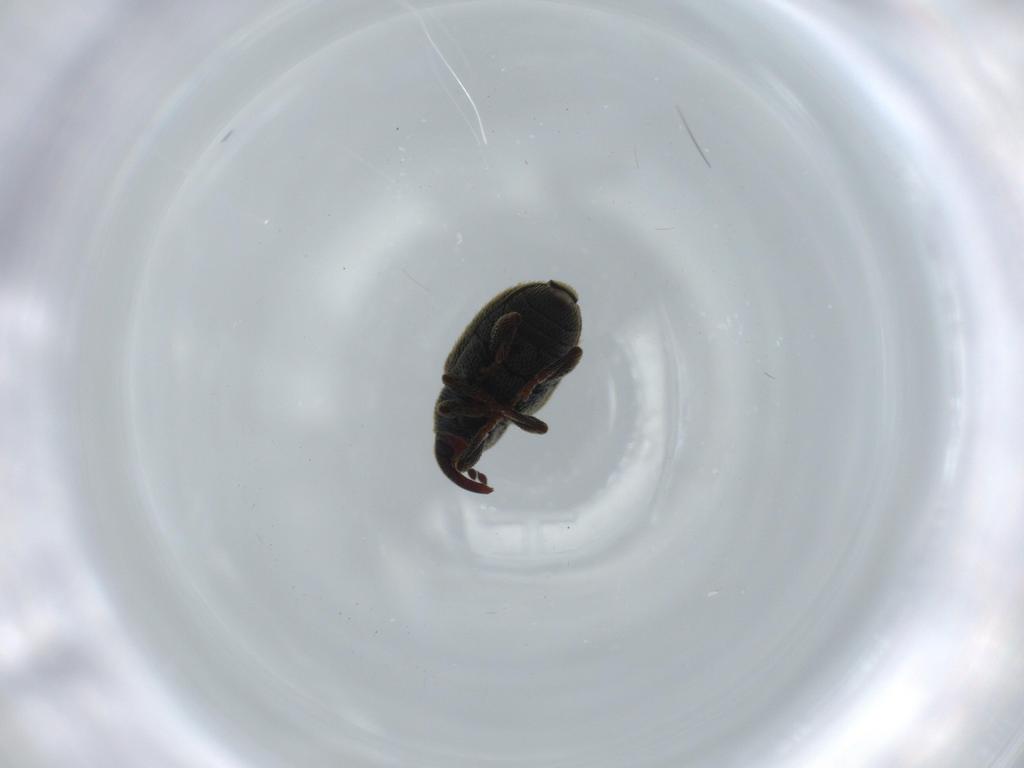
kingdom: Animalia
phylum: Arthropoda
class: Insecta
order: Coleoptera
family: Curculionidae
